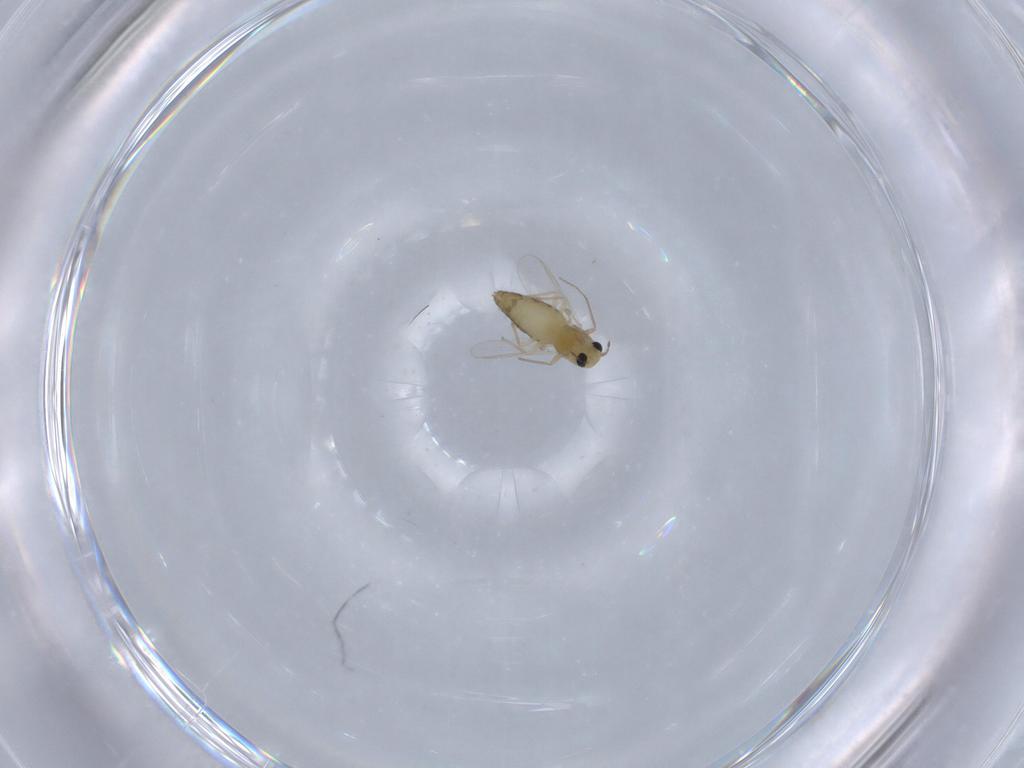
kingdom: Animalia
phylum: Arthropoda
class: Insecta
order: Diptera
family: Chironomidae
